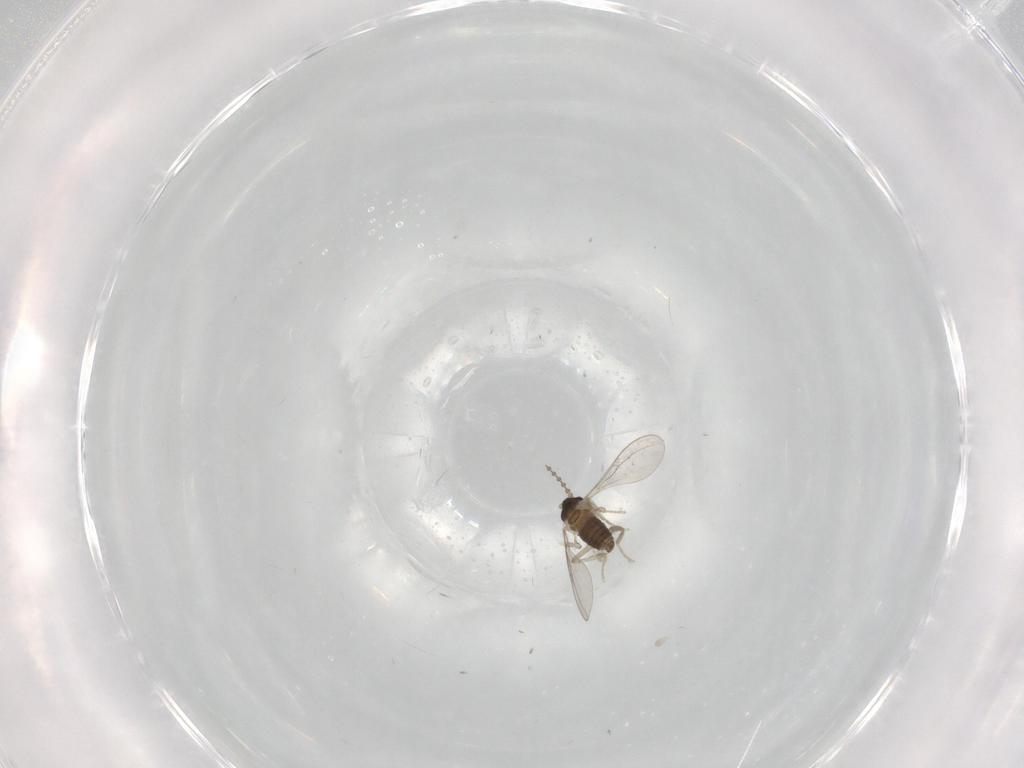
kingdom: Animalia
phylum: Arthropoda
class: Insecta
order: Diptera
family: Cecidomyiidae
